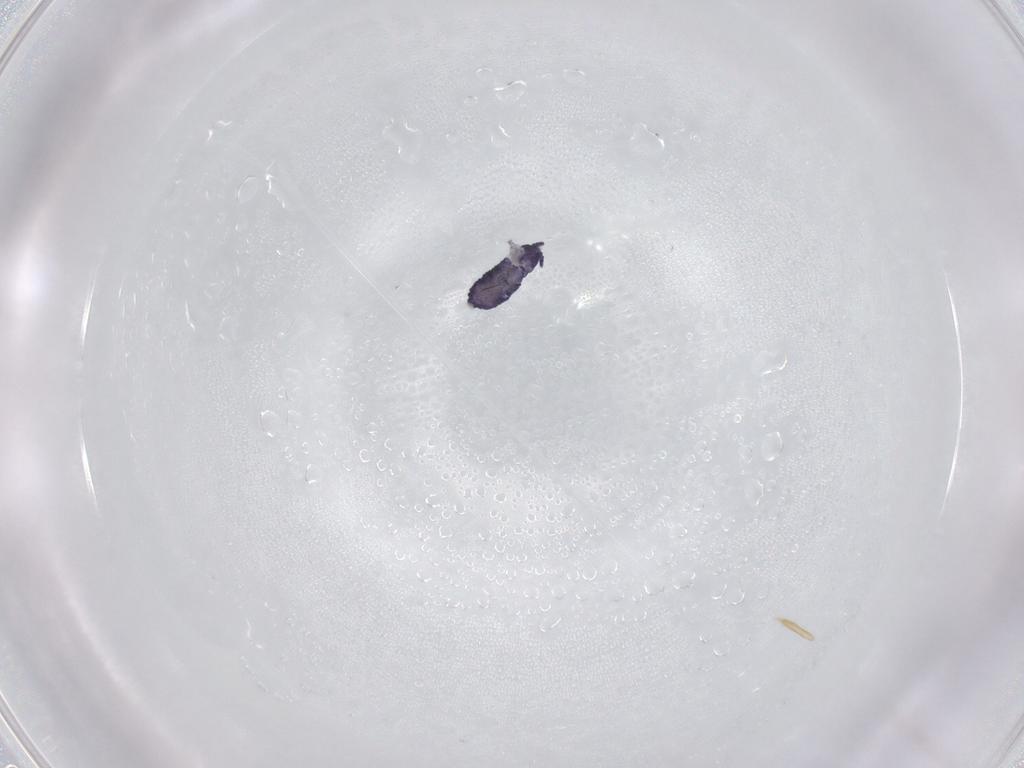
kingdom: Animalia
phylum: Arthropoda
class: Collembola
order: Poduromorpha
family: Neanuridae
